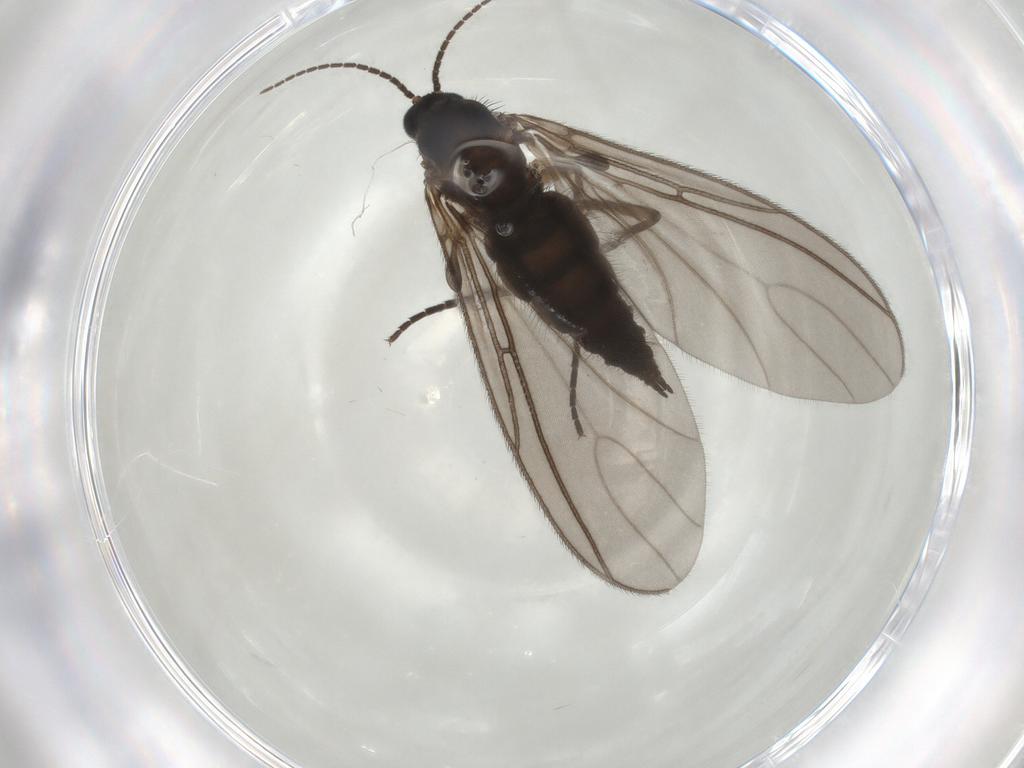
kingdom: Animalia
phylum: Arthropoda
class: Insecta
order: Diptera
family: Sciaridae
